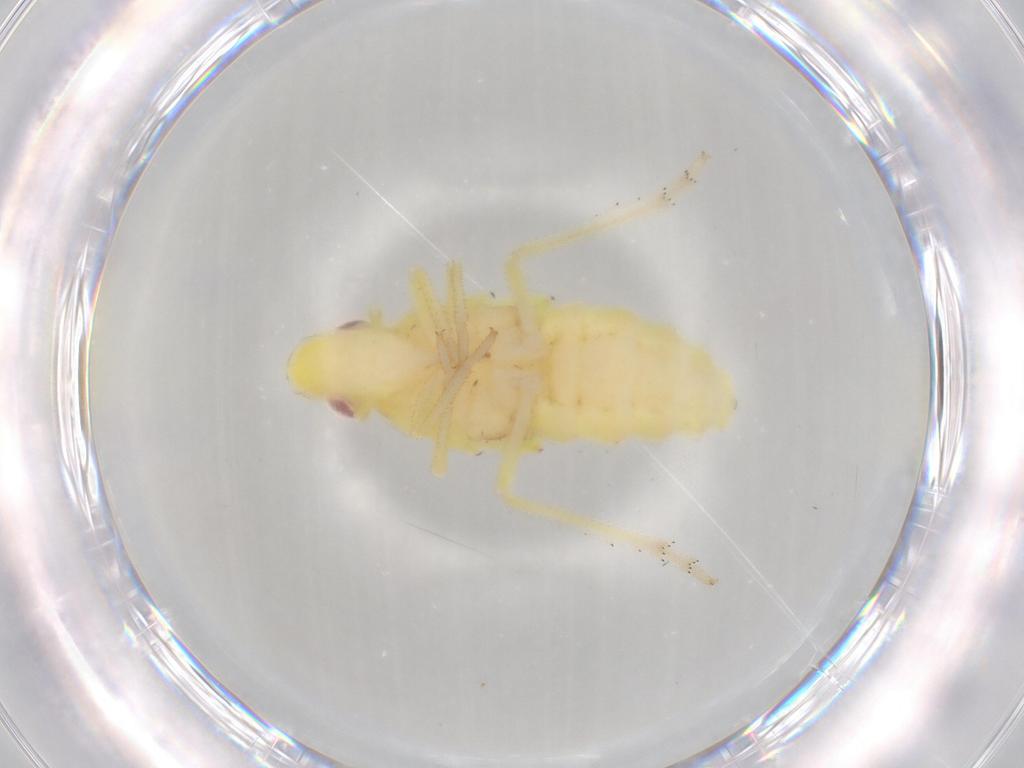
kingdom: Animalia
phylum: Arthropoda
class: Insecta
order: Hemiptera
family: Tropiduchidae
